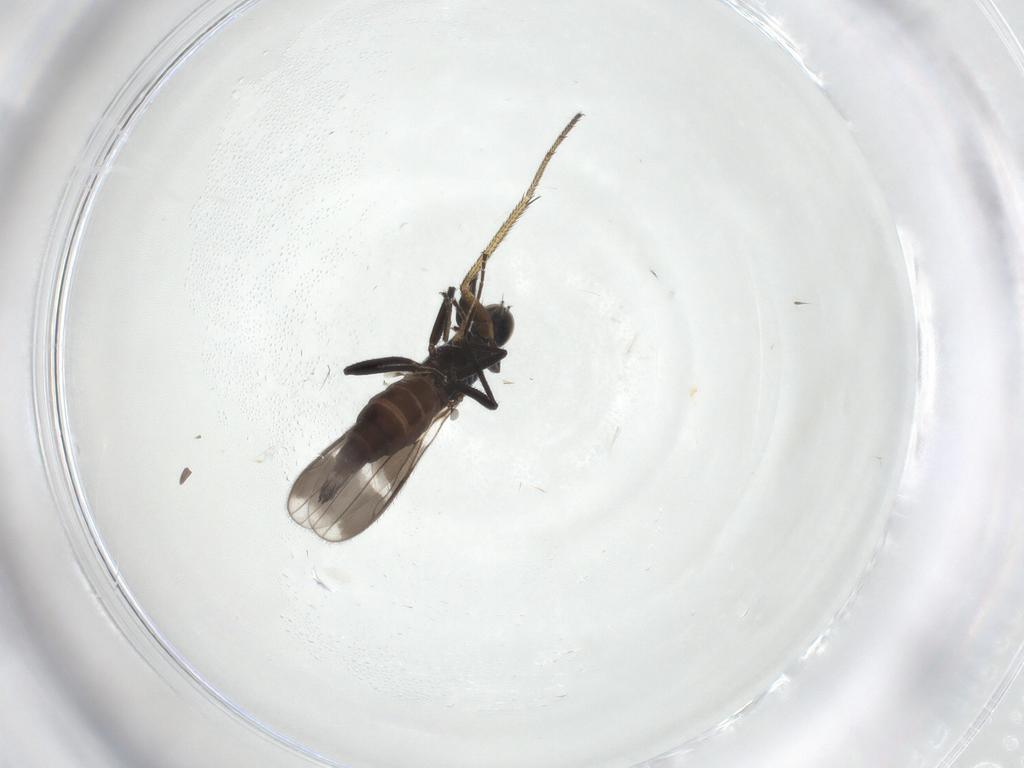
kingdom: Animalia
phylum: Arthropoda
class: Insecta
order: Diptera
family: Hybotidae
